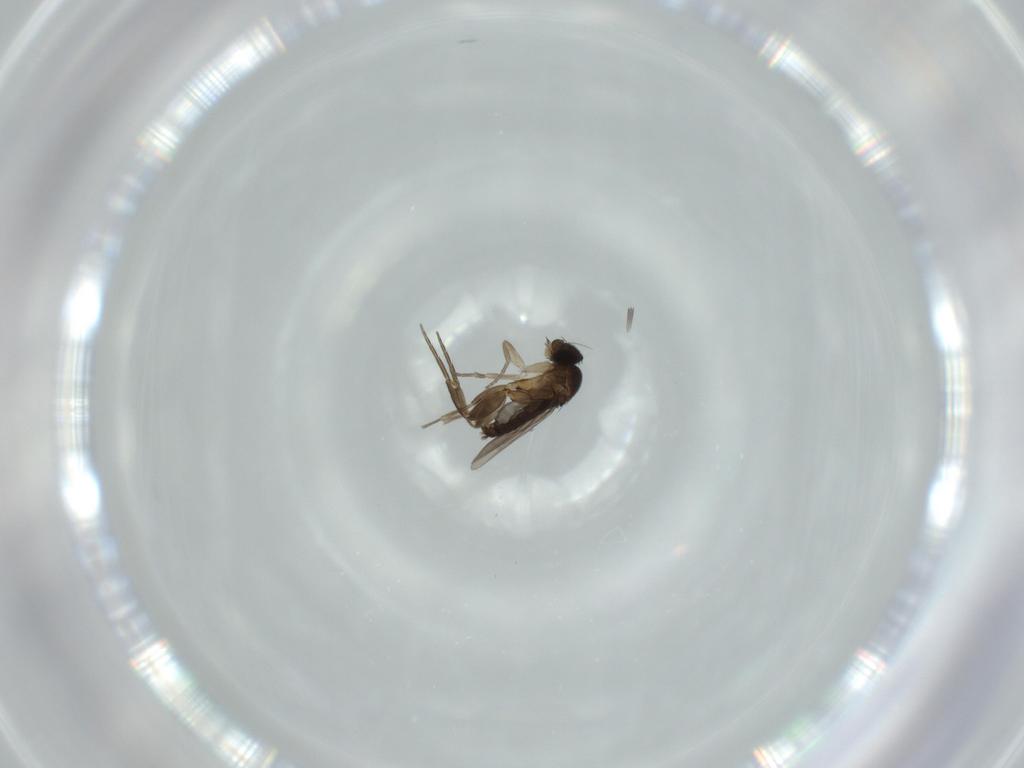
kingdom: Animalia
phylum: Arthropoda
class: Insecta
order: Diptera
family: Phoridae
